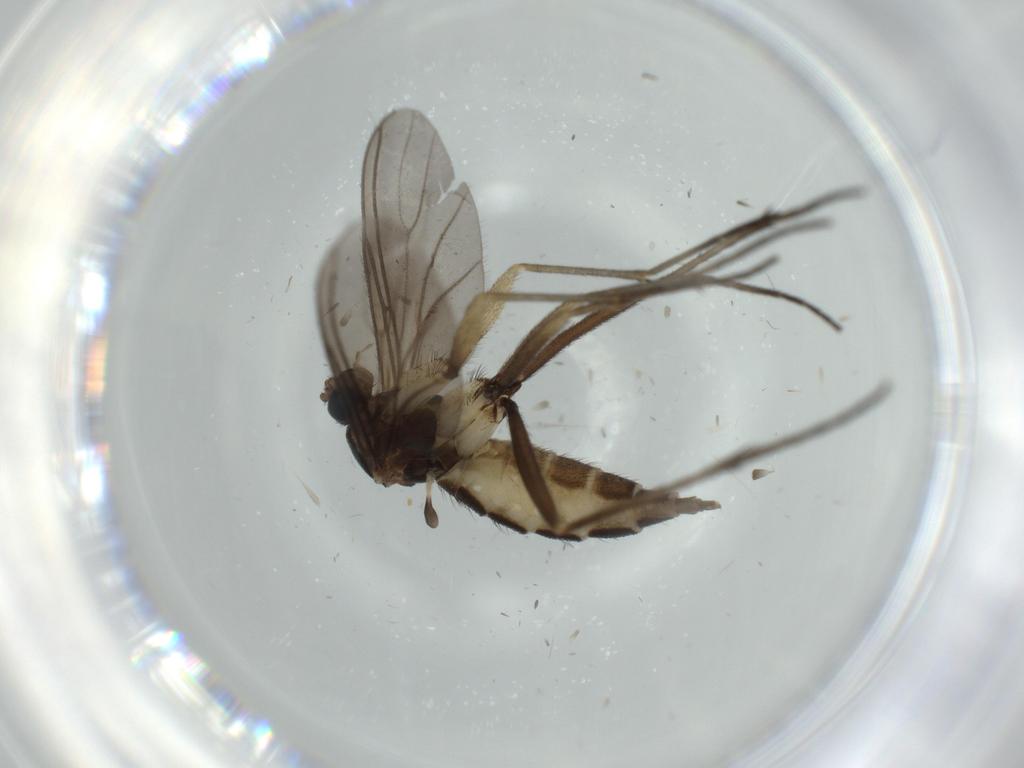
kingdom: Animalia
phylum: Arthropoda
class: Insecta
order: Diptera
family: Sciaridae
